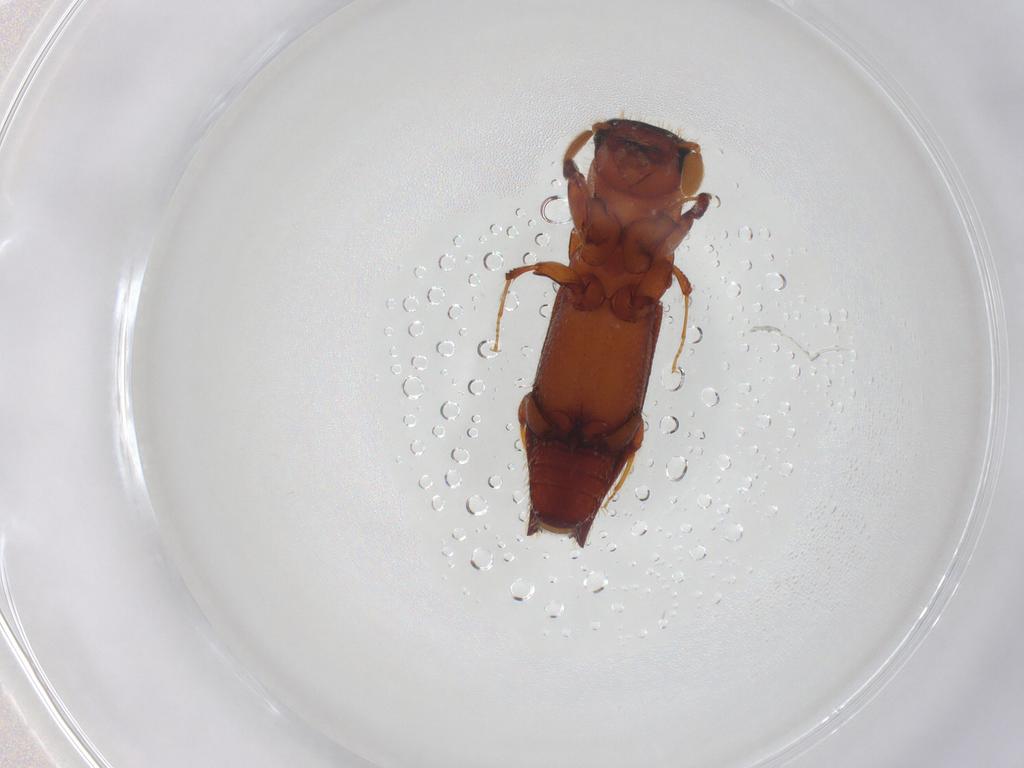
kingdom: Animalia
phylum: Arthropoda
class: Insecta
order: Coleoptera
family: Curculionidae
